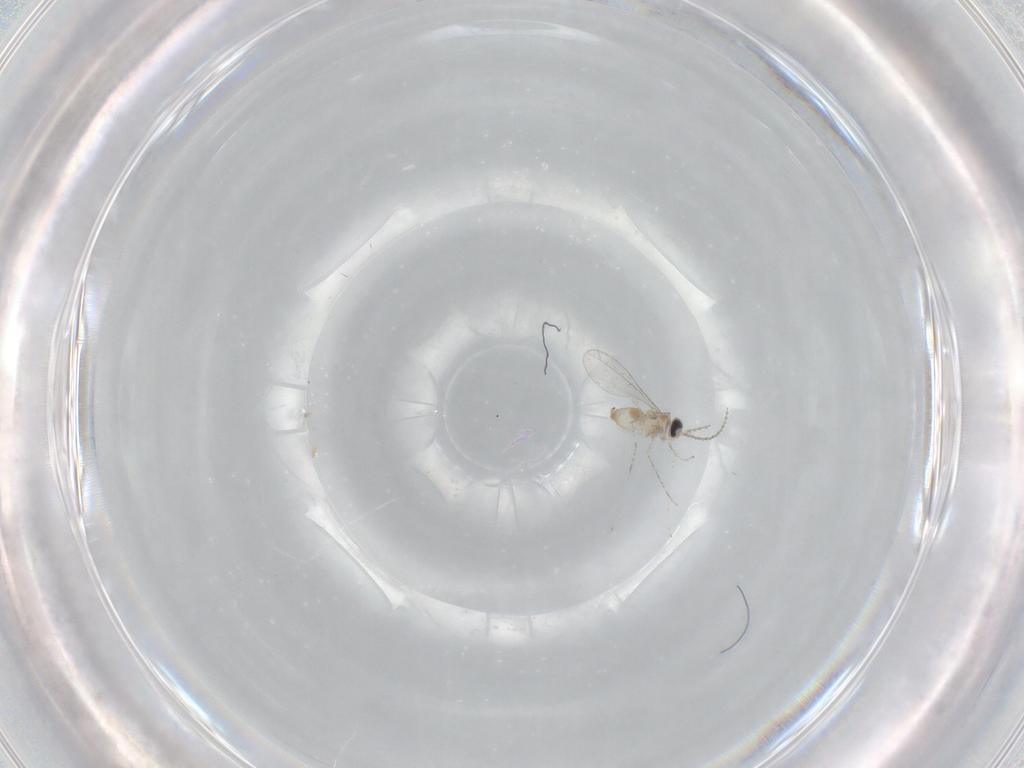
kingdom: Animalia
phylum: Arthropoda
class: Insecta
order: Diptera
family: Cecidomyiidae
